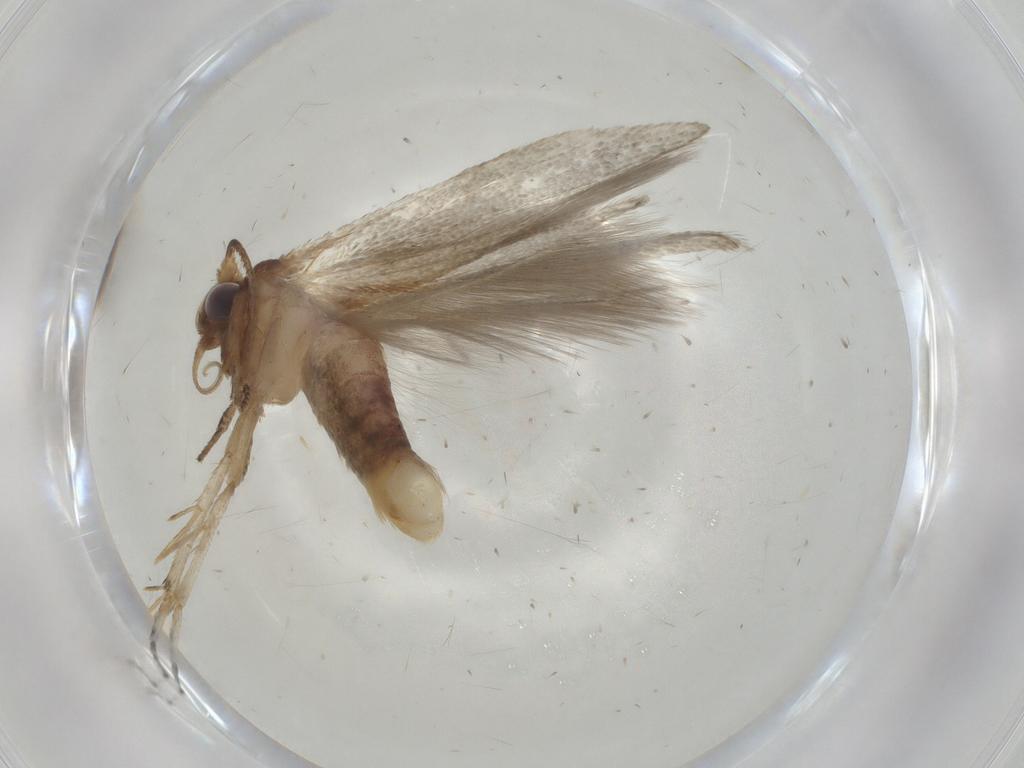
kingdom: Animalia
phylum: Arthropoda
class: Insecta
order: Lepidoptera
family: Blastobasidae
